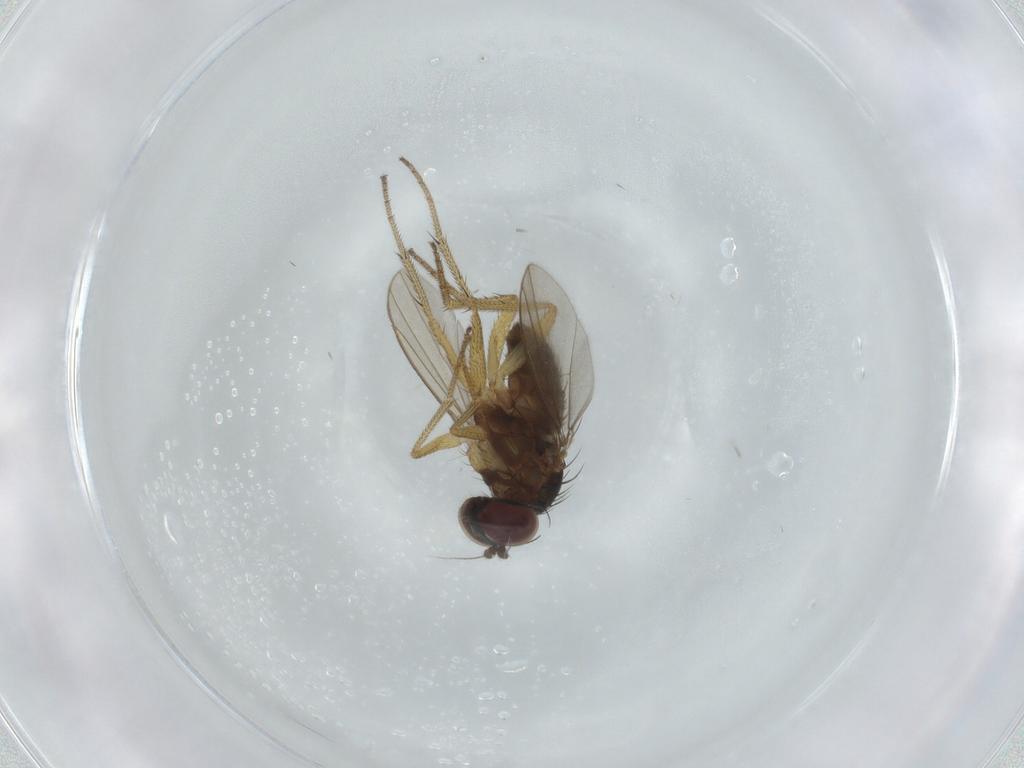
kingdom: Animalia
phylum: Arthropoda
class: Insecta
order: Diptera
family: Dolichopodidae
